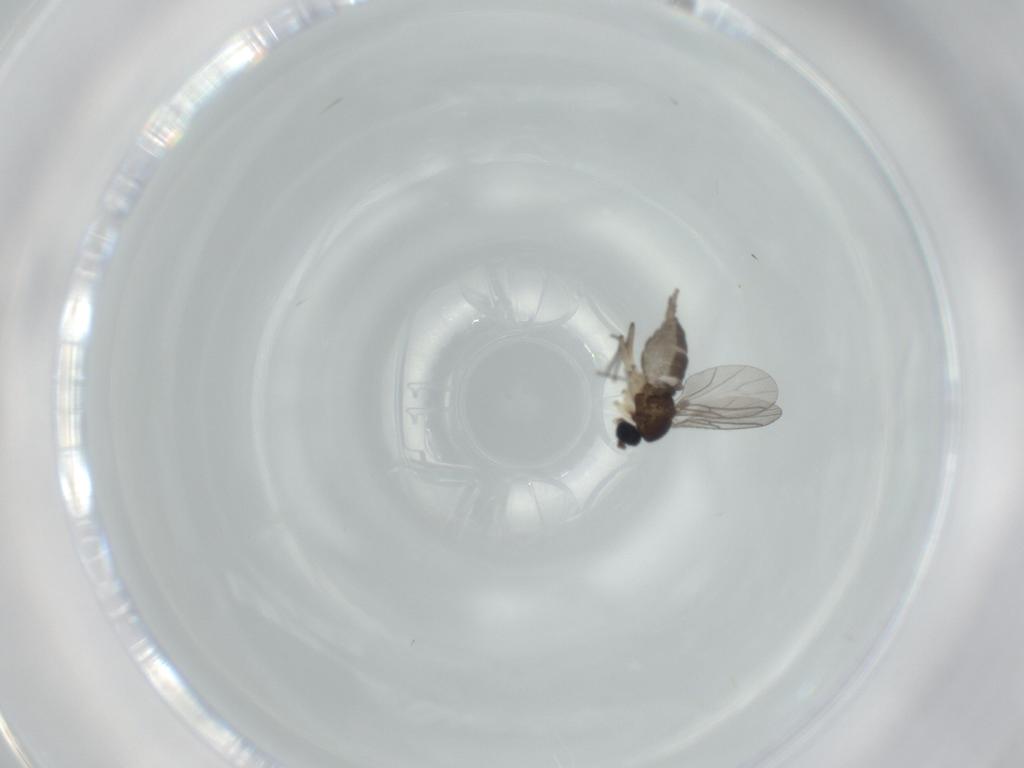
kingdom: Animalia
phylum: Arthropoda
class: Insecta
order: Diptera
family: Sciaridae
